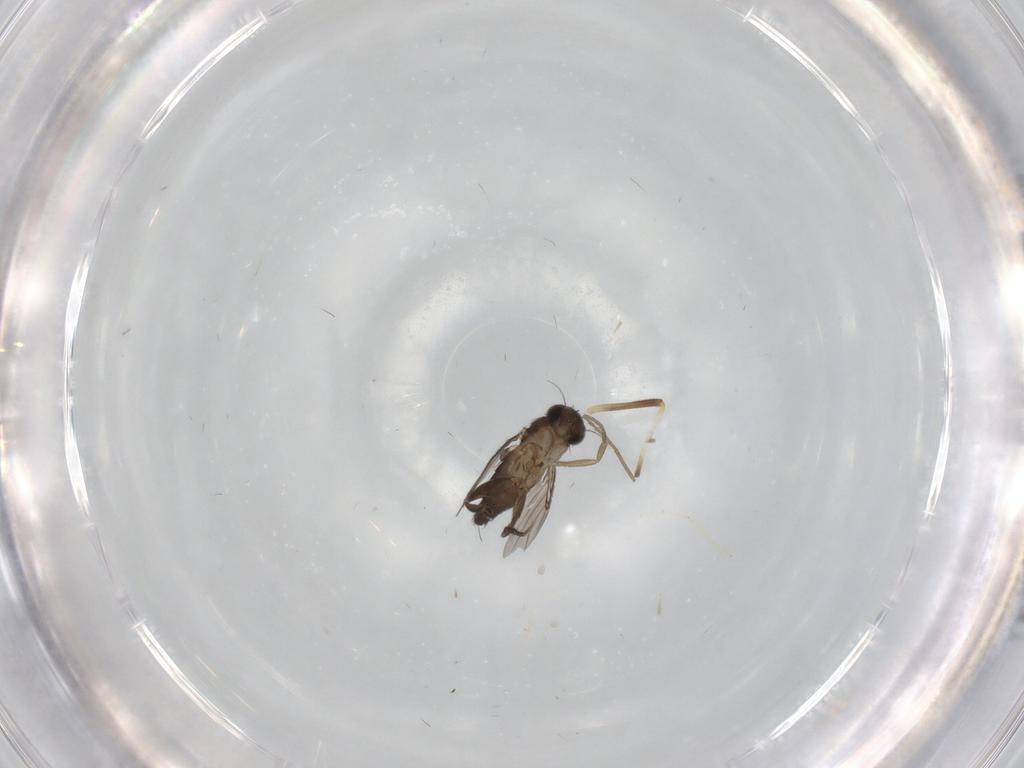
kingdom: Animalia
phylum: Arthropoda
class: Insecta
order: Diptera
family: Phoridae
